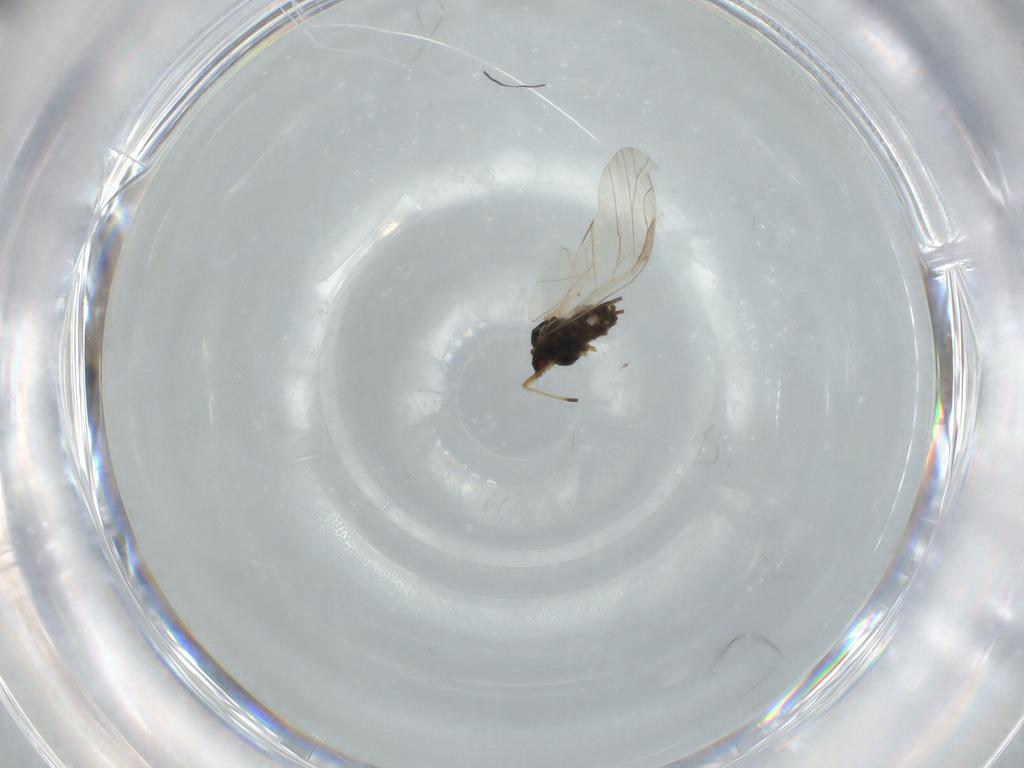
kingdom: Animalia
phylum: Arthropoda
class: Insecta
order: Hemiptera
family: Aphididae
